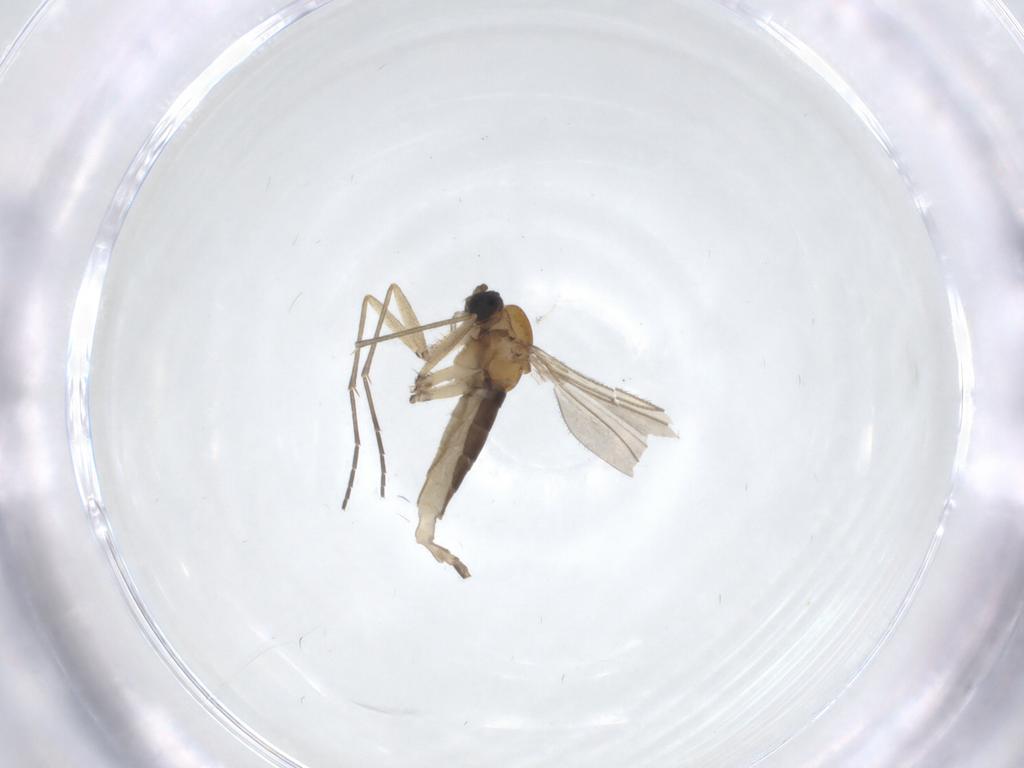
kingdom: Animalia
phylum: Arthropoda
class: Insecta
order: Diptera
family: Sciaridae
